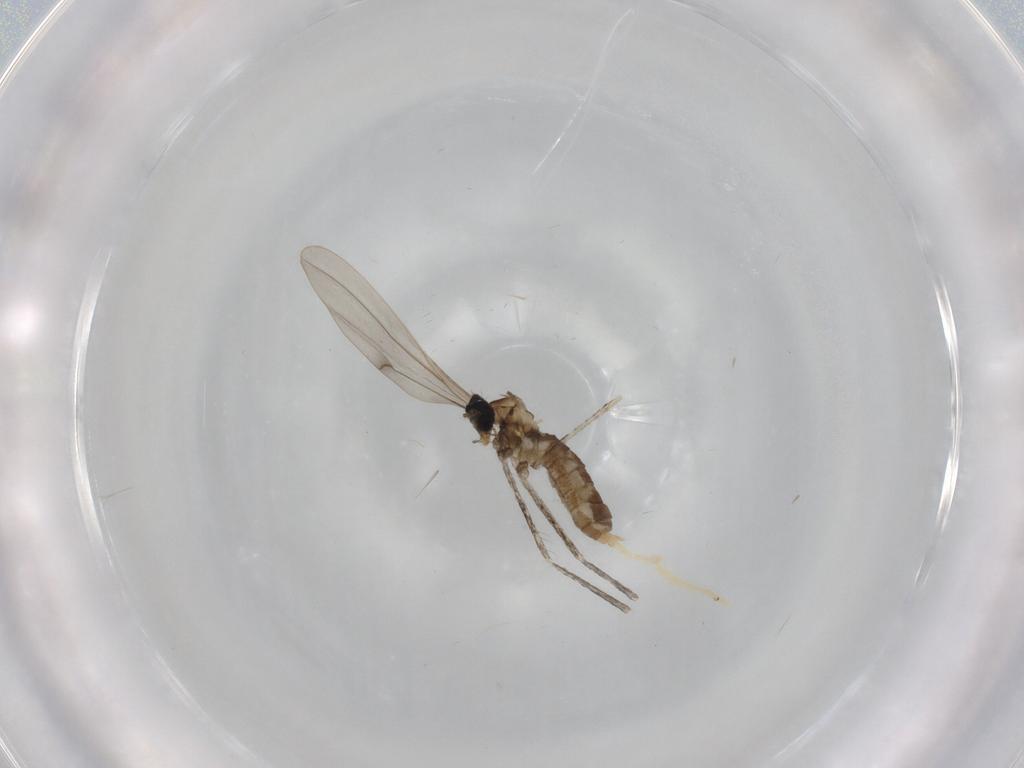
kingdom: Animalia
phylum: Arthropoda
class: Insecta
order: Diptera
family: Cecidomyiidae
